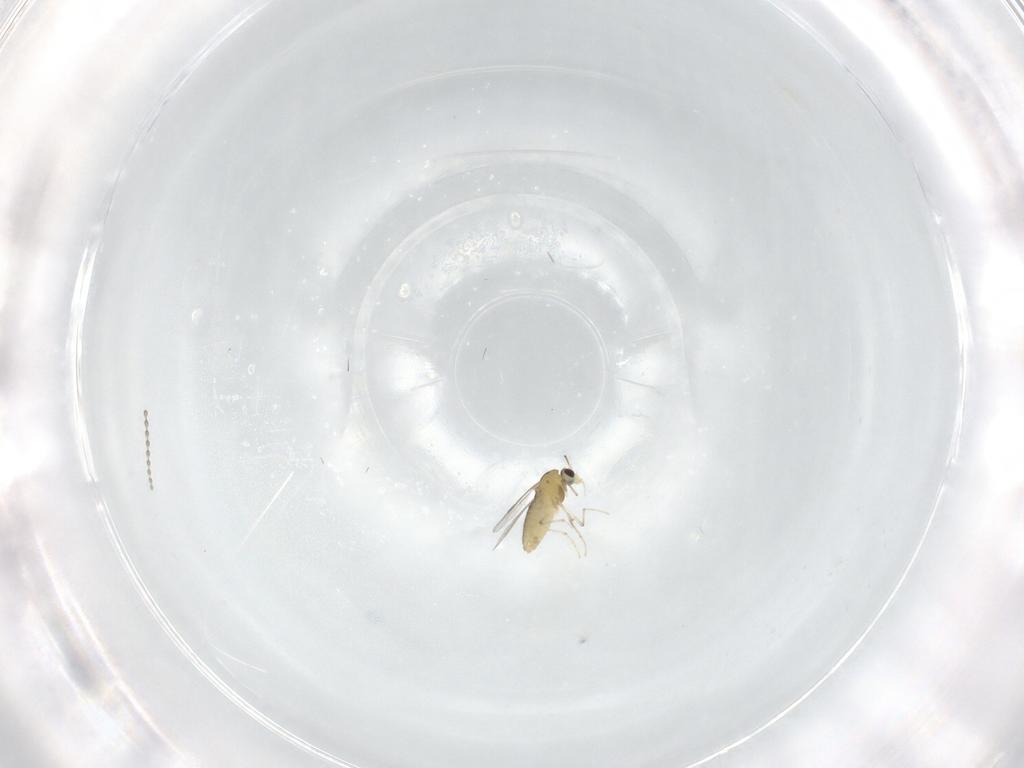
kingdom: Animalia
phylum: Arthropoda
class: Insecta
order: Diptera
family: Cecidomyiidae
